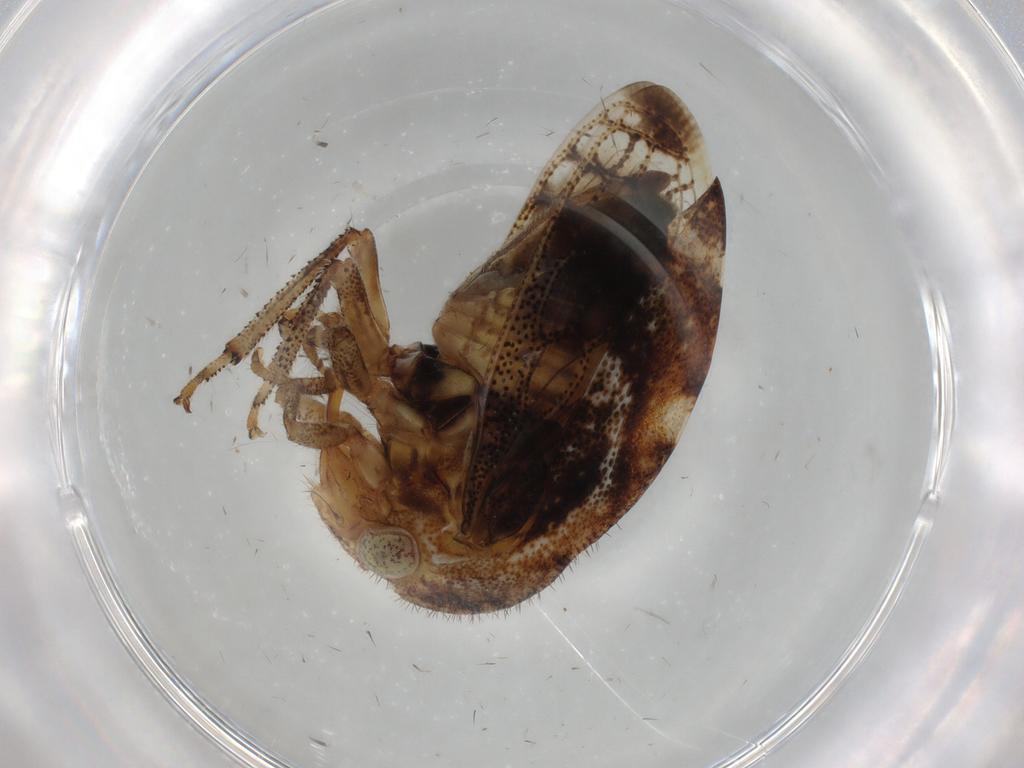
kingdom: Animalia
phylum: Arthropoda
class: Insecta
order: Hemiptera
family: Membracidae
